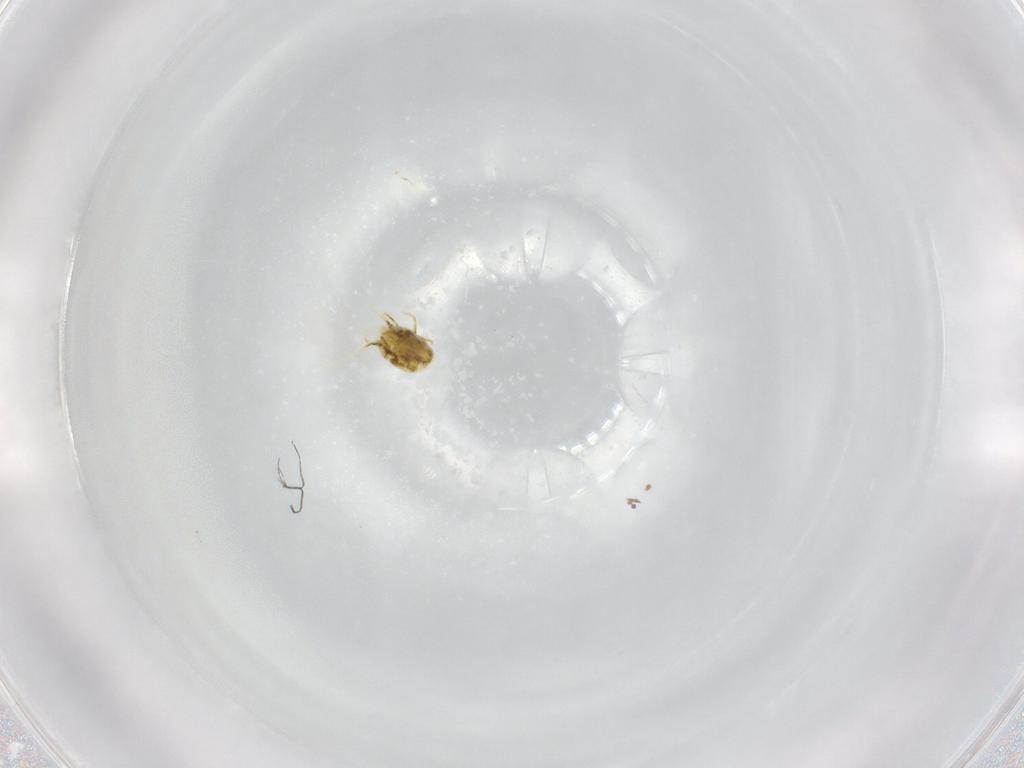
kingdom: Animalia
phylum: Arthropoda
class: Arachnida
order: Trombidiformes
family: Tetranychidae
